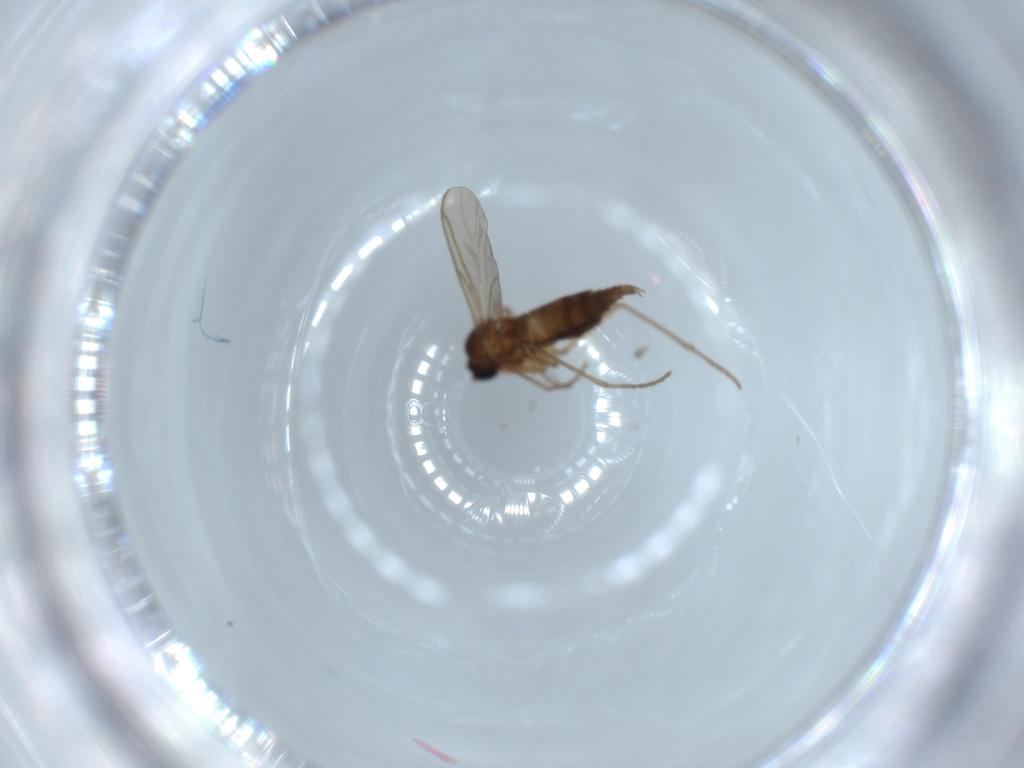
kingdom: Animalia
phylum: Arthropoda
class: Insecta
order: Diptera
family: Sciaridae
